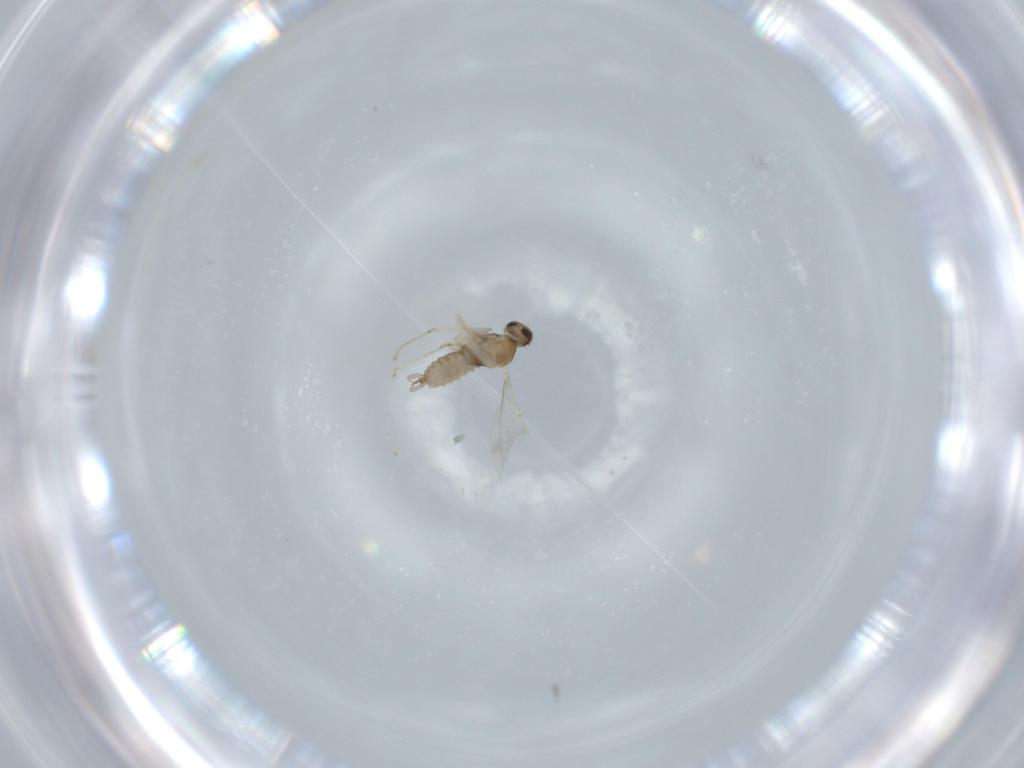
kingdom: Animalia
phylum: Arthropoda
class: Insecta
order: Diptera
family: Cecidomyiidae
